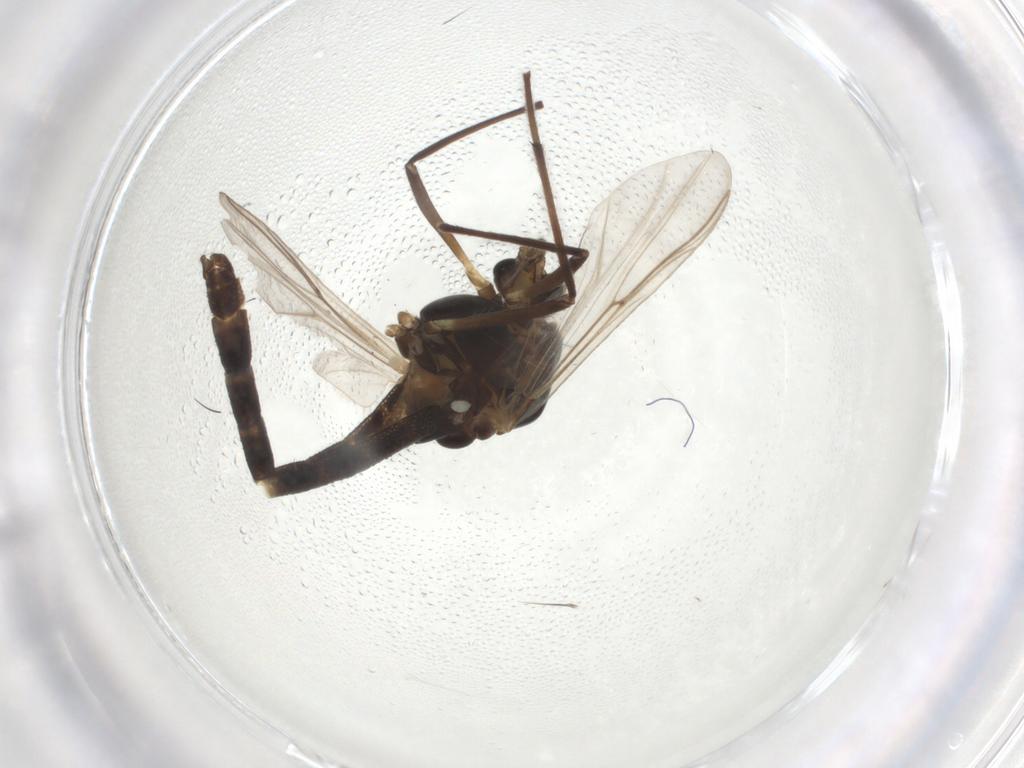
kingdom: Animalia
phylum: Arthropoda
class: Insecta
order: Diptera
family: Chironomidae
